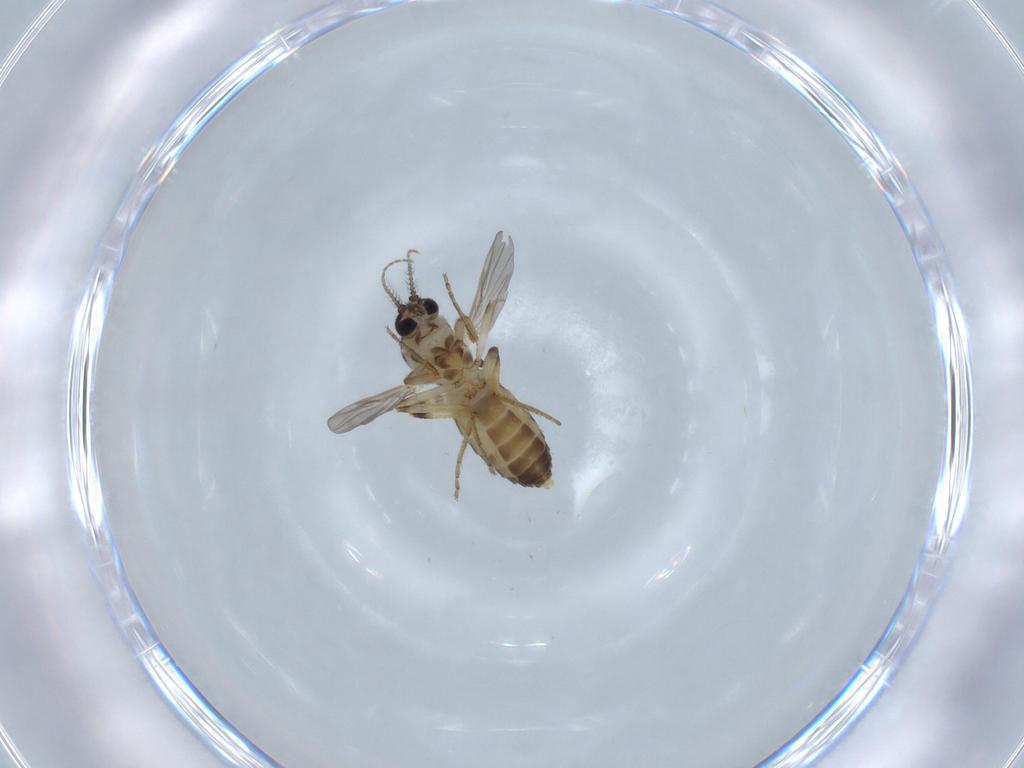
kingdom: Animalia
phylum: Arthropoda
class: Insecta
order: Diptera
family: Ceratopogonidae
